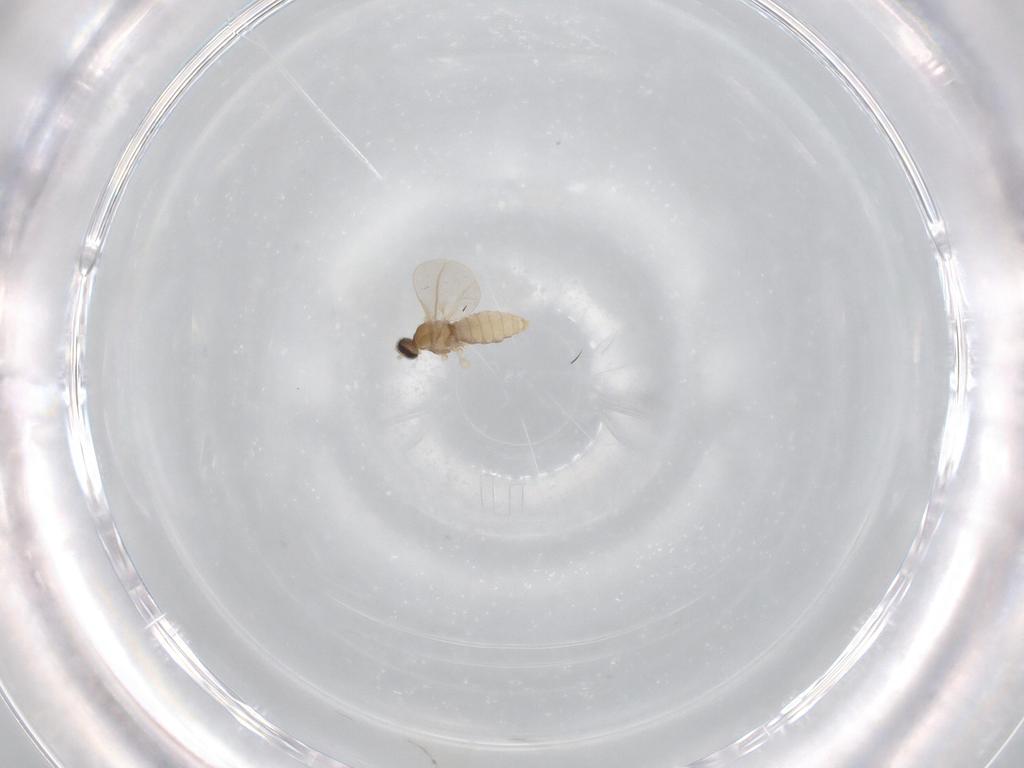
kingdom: Animalia
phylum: Arthropoda
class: Insecta
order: Diptera
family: Cecidomyiidae
